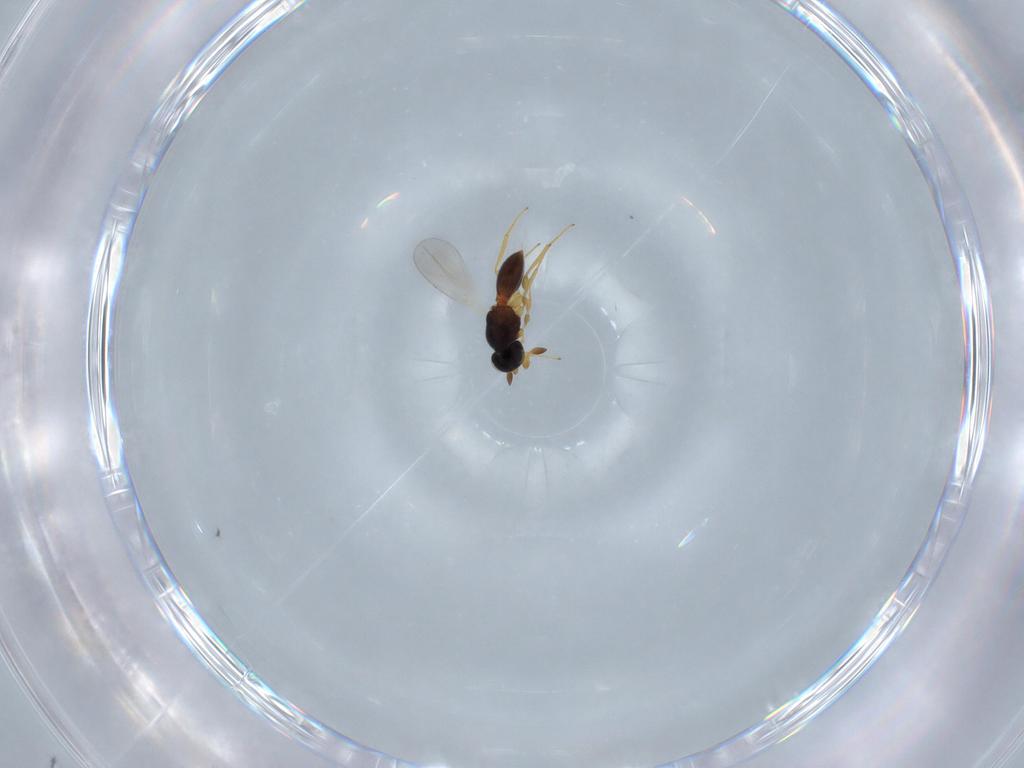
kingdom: Animalia
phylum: Arthropoda
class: Insecta
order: Hymenoptera
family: Platygastridae
